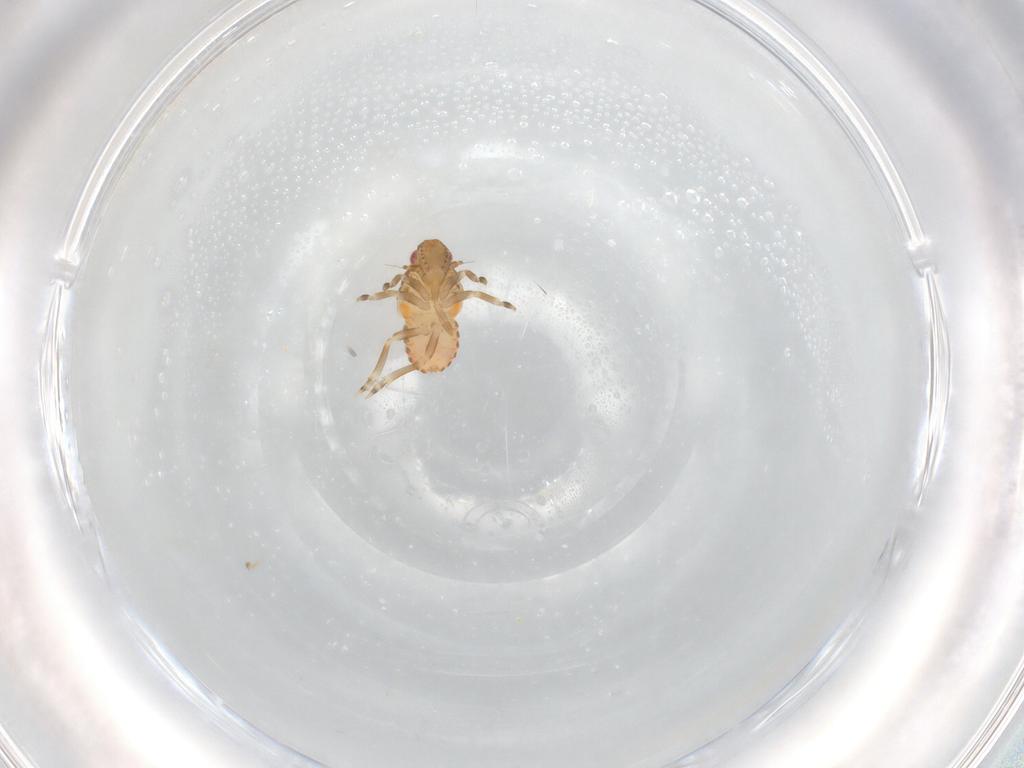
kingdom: Animalia
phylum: Arthropoda
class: Insecta
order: Hemiptera
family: Flatidae
